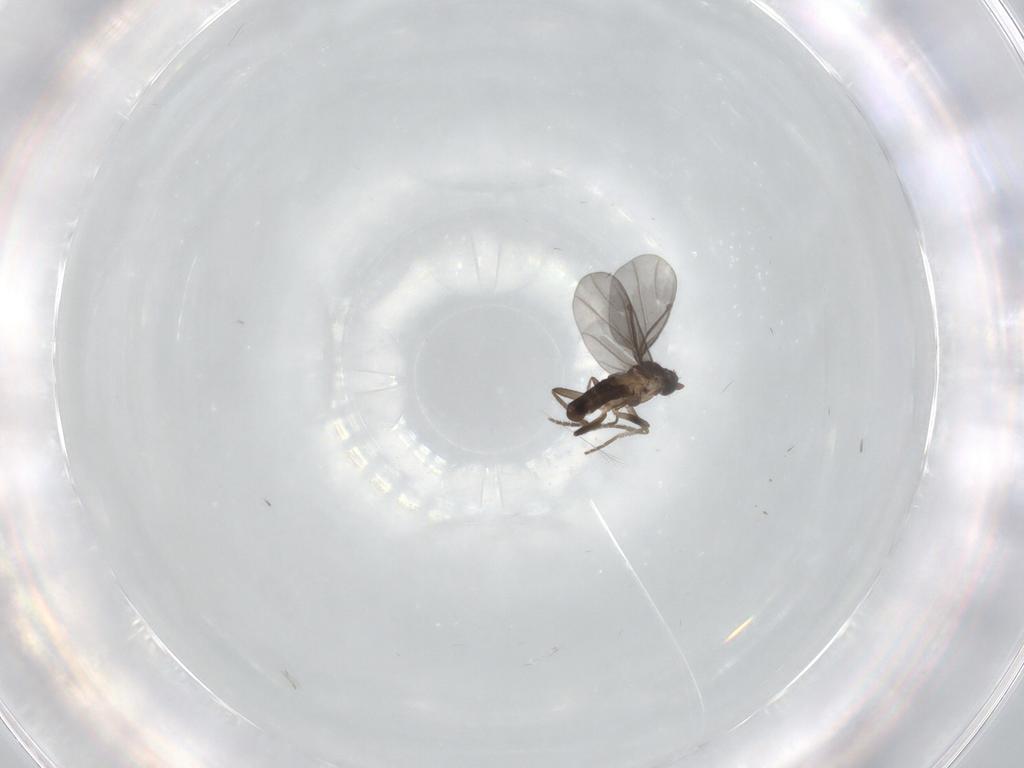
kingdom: Animalia
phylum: Arthropoda
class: Insecta
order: Diptera
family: Phoridae
